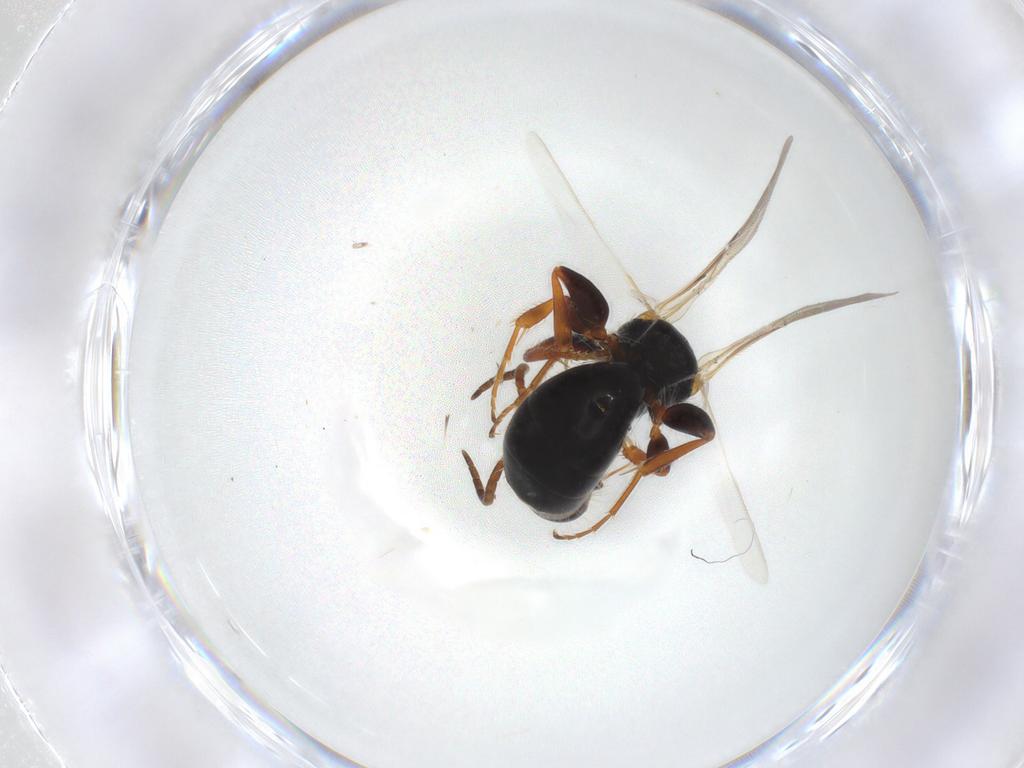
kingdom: Animalia
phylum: Arthropoda
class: Insecta
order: Hymenoptera
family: Bethylidae
